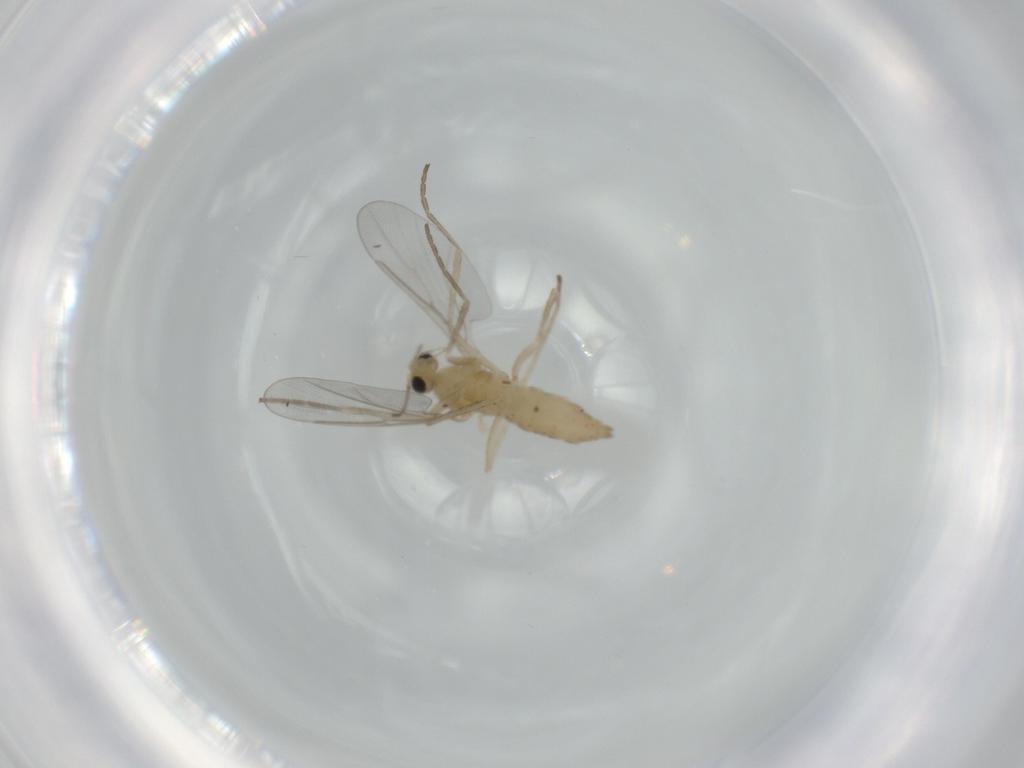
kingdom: Animalia
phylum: Arthropoda
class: Insecta
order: Diptera
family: Cecidomyiidae
